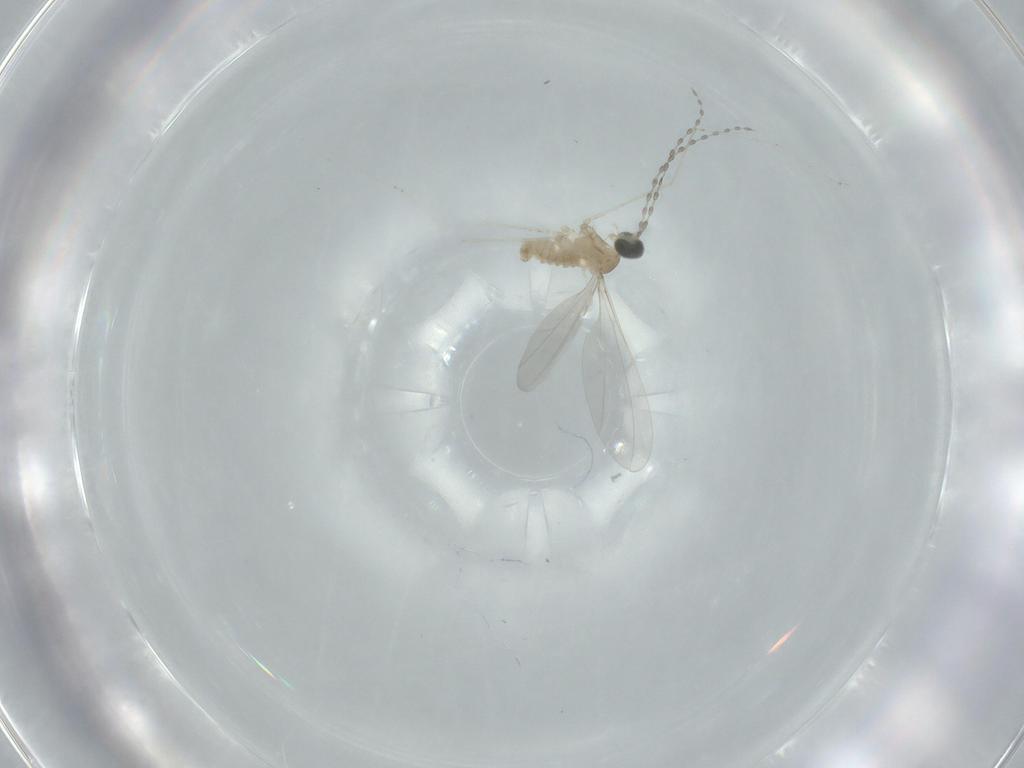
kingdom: Animalia
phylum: Arthropoda
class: Insecta
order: Diptera
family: Cecidomyiidae
